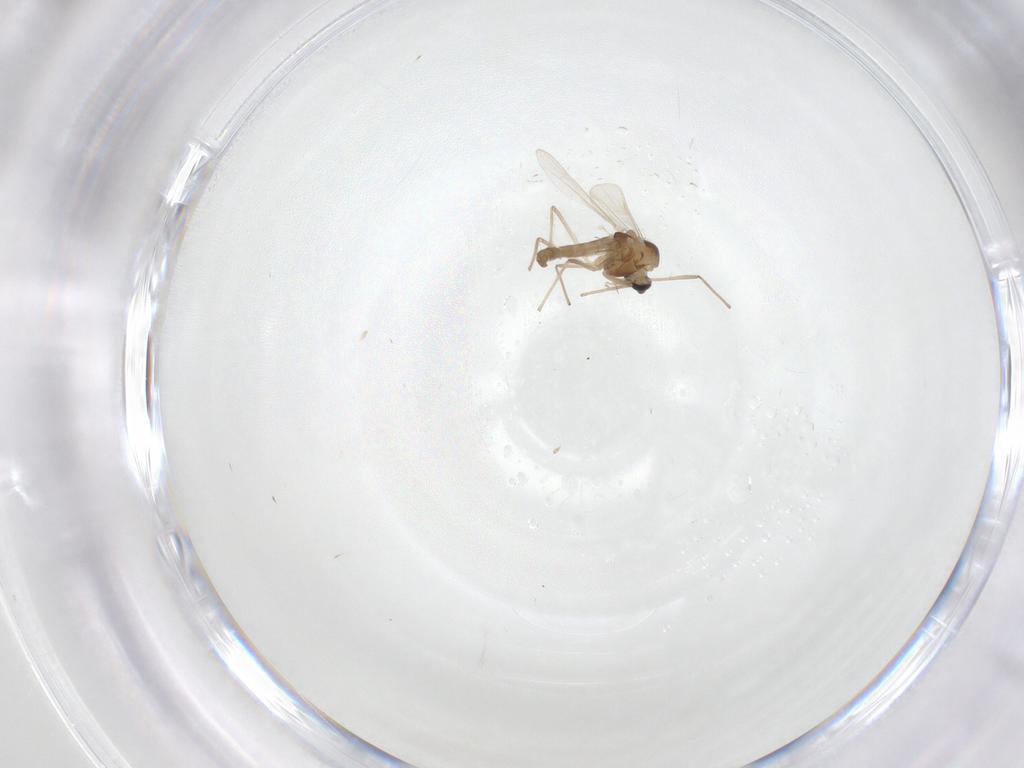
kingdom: Animalia
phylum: Arthropoda
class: Insecta
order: Diptera
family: Chironomidae
